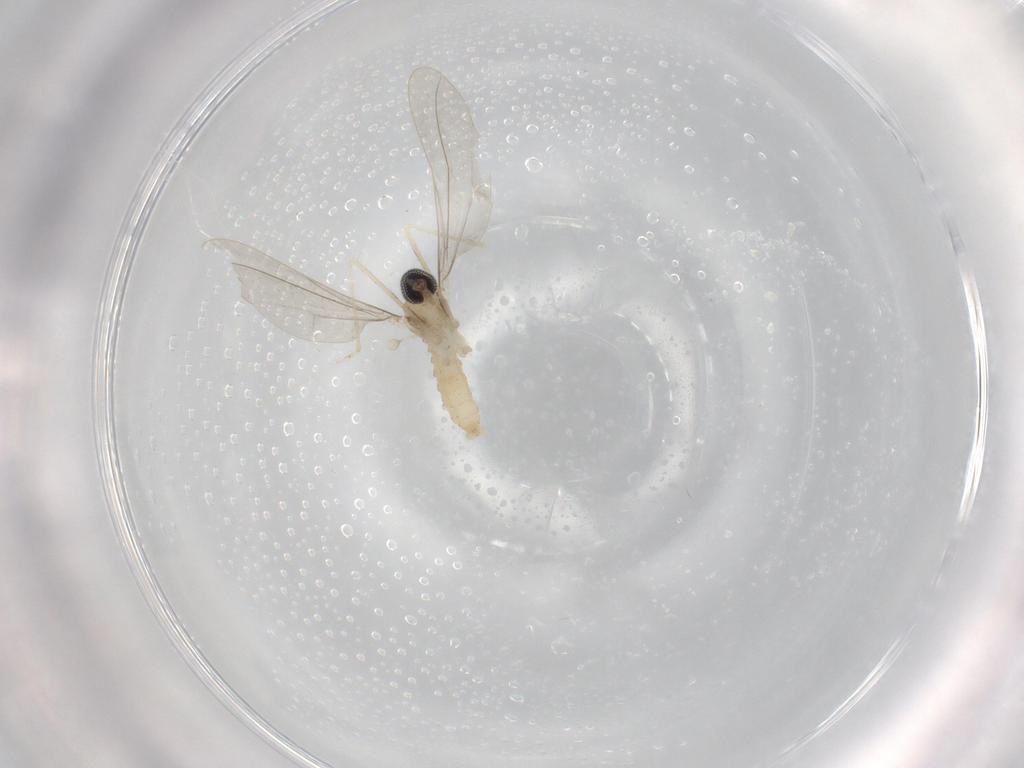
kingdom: Animalia
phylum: Arthropoda
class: Insecta
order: Diptera
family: Cecidomyiidae
